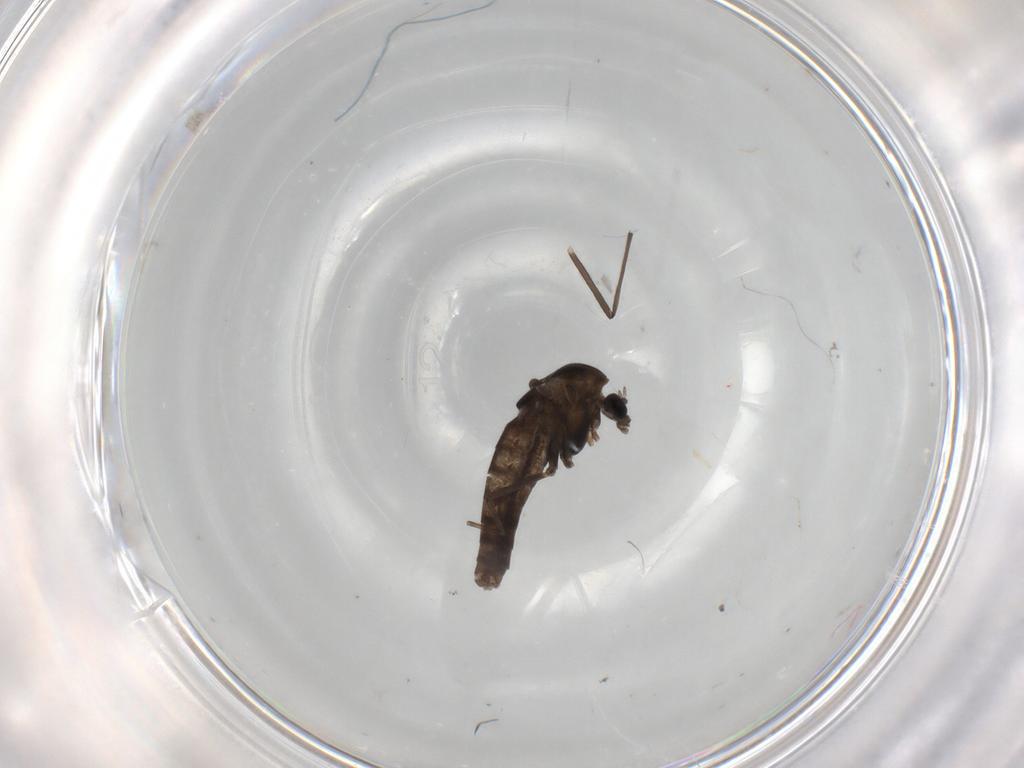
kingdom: Animalia
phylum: Arthropoda
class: Insecta
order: Diptera
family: Chironomidae
